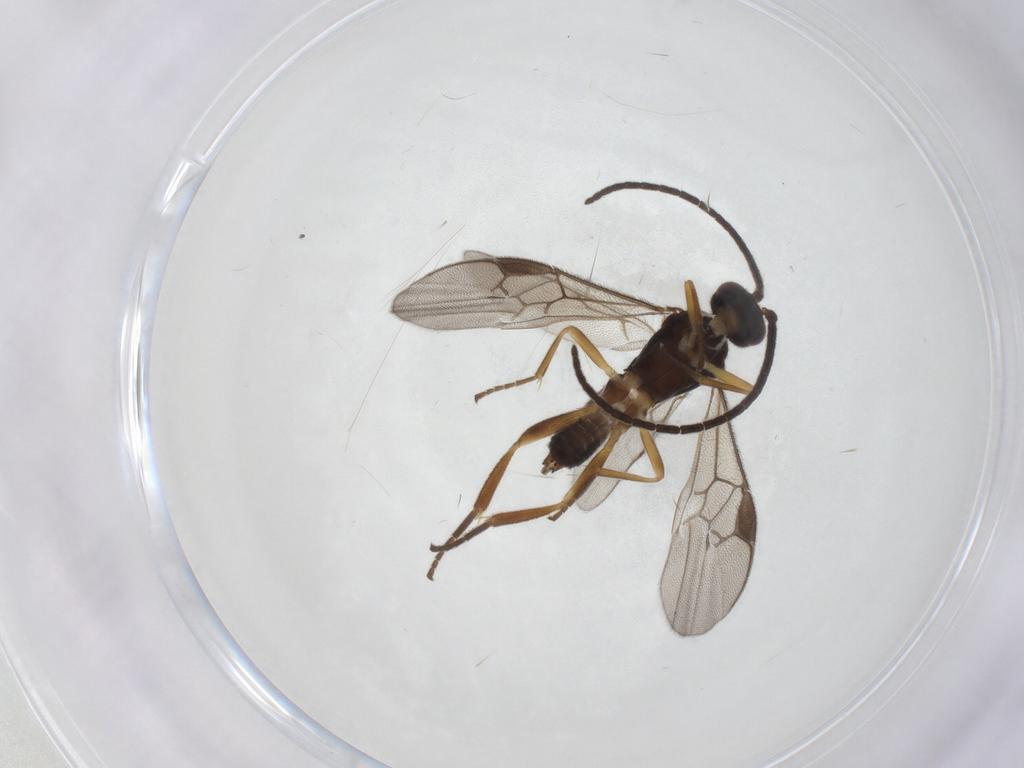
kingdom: Animalia
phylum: Arthropoda
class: Insecta
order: Hymenoptera
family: Braconidae
